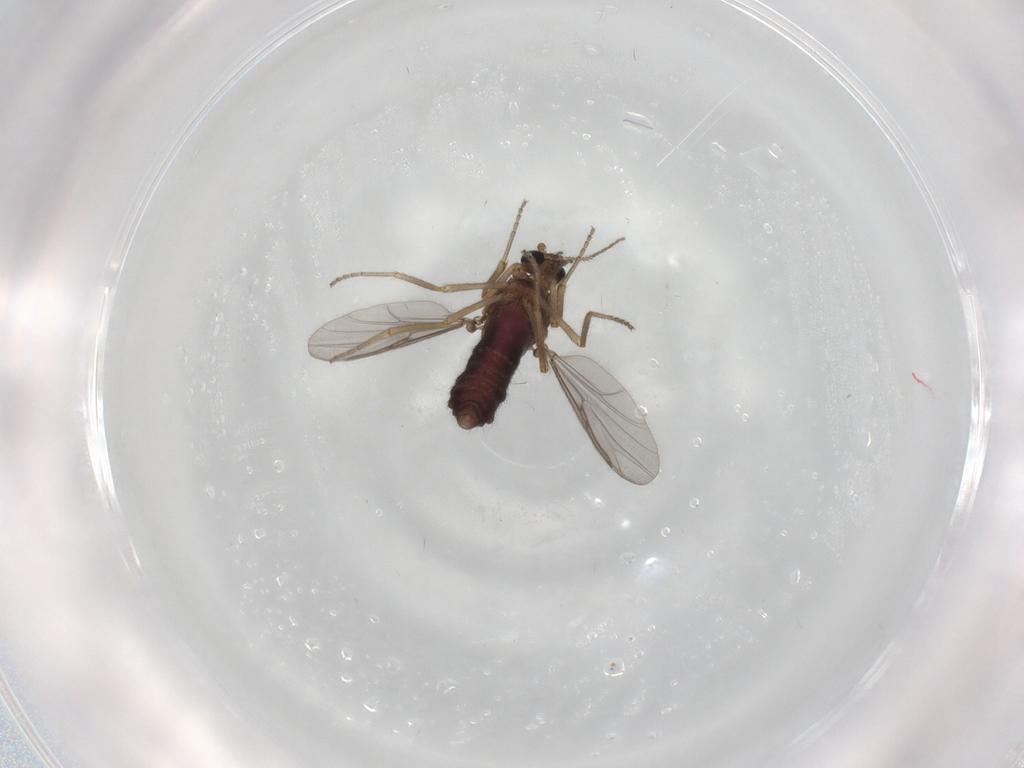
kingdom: Animalia
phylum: Arthropoda
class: Insecta
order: Diptera
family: Ceratopogonidae
